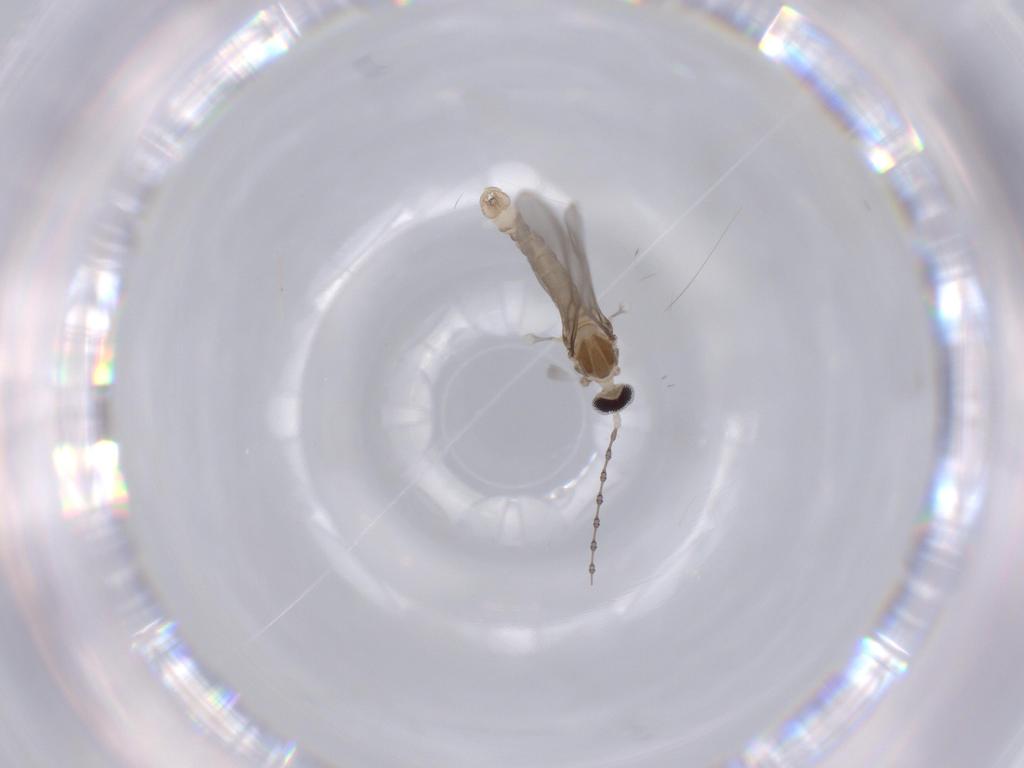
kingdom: Animalia
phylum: Arthropoda
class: Insecta
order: Diptera
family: Cecidomyiidae
